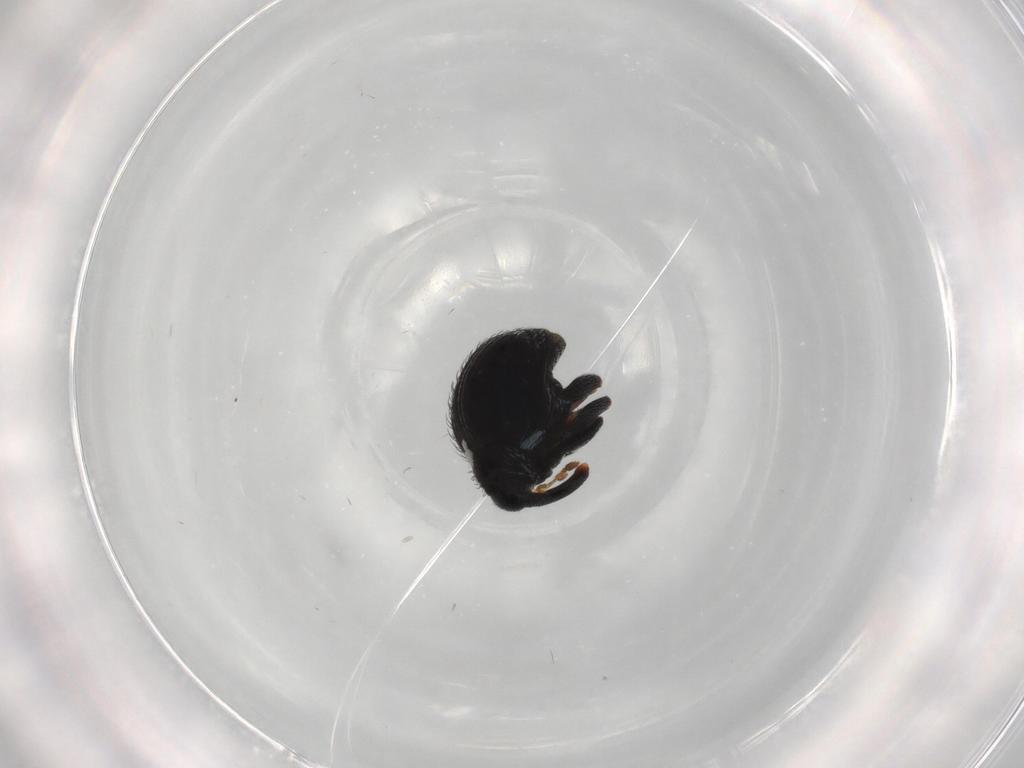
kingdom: Animalia
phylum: Arthropoda
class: Insecta
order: Coleoptera
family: Curculionidae
